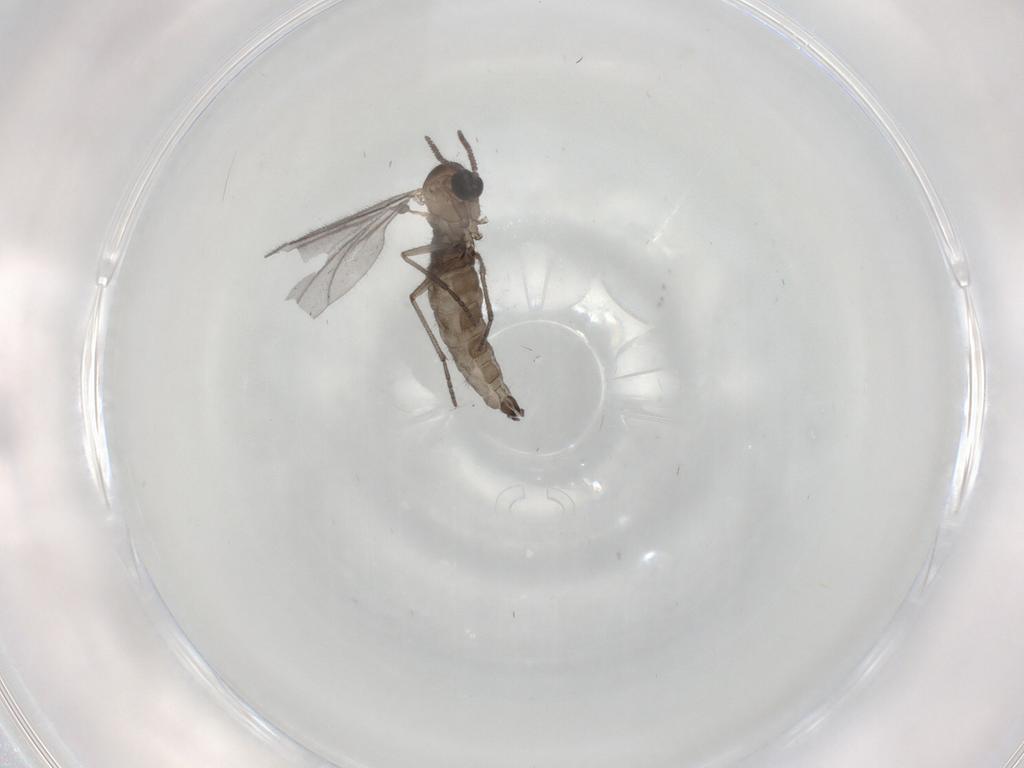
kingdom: Animalia
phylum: Arthropoda
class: Insecta
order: Diptera
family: Sciaridae
